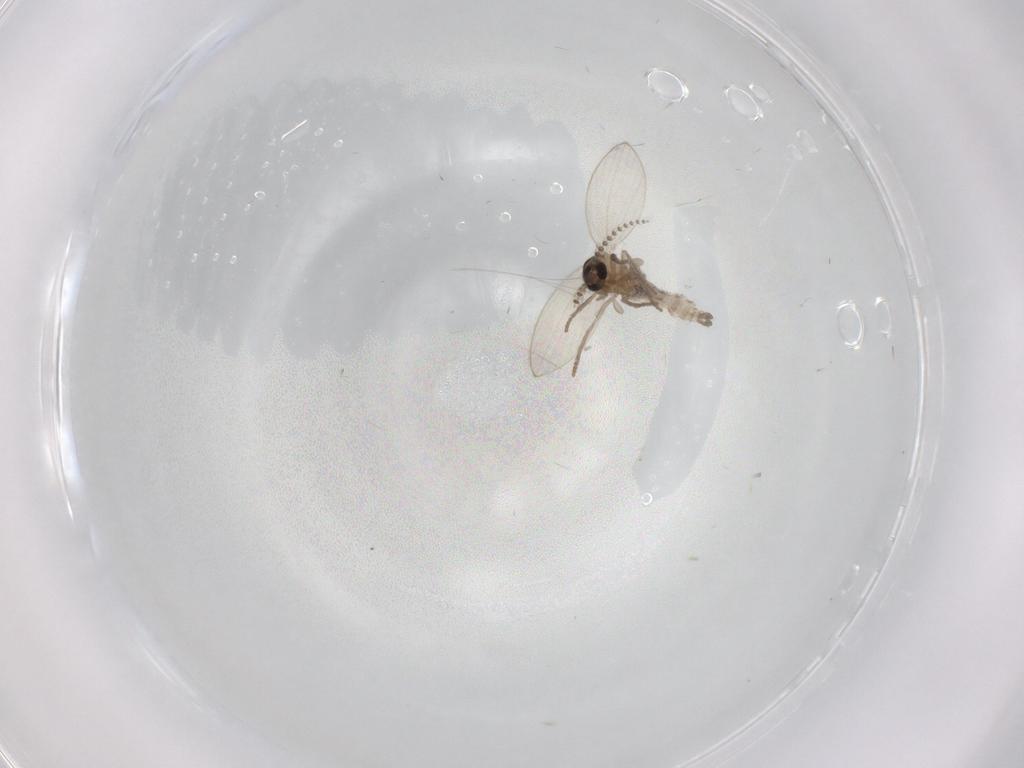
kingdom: Animalia
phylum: Arthropoda
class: Insecta
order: Diptera
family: Psychodidae
